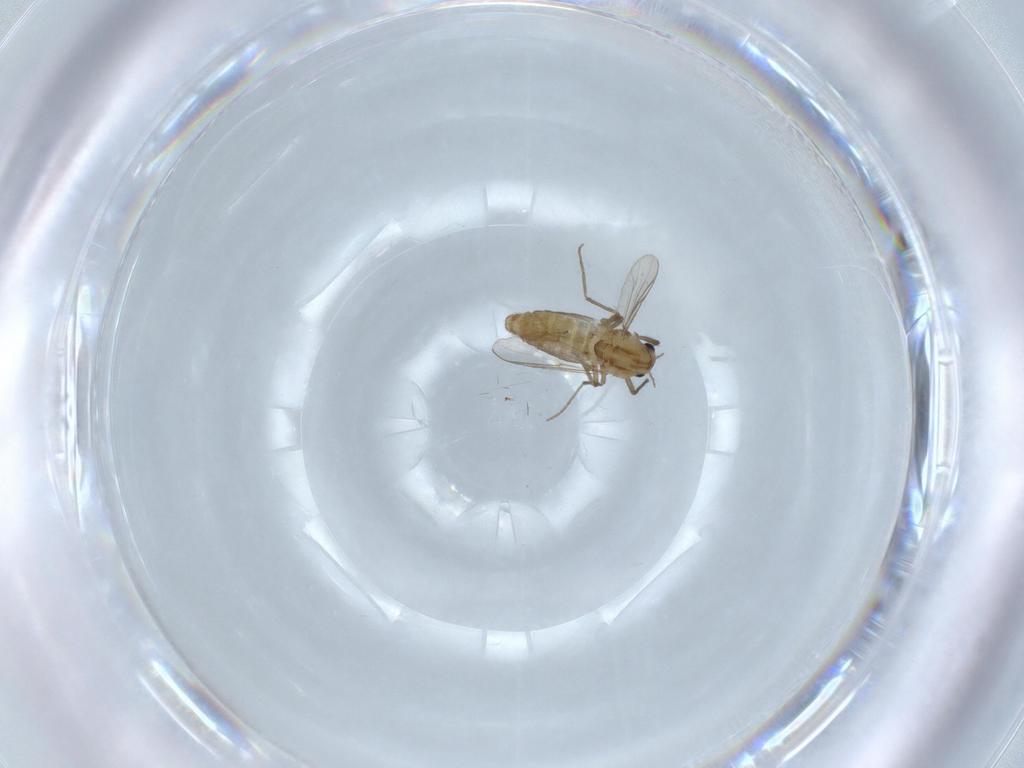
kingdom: Animalia
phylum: Arthropoda
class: Insecta
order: Diptera
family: Chironomidae
